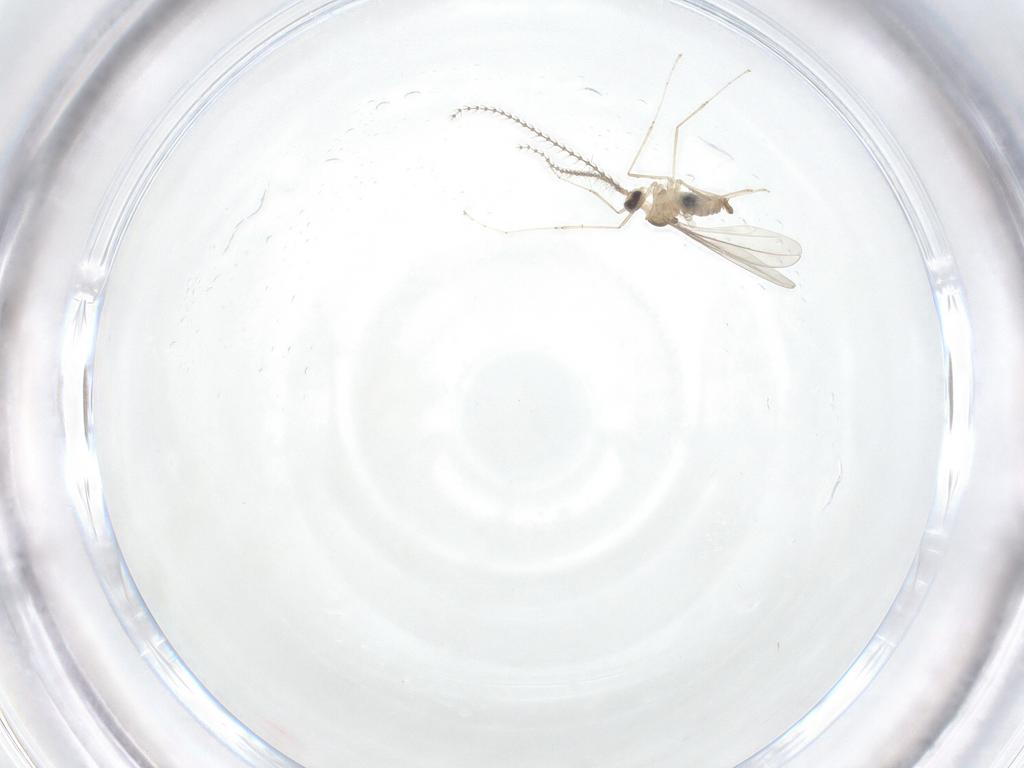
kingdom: Animalia
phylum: Arthropoda
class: Insecta
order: Diptera
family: Cecidomyiidae
